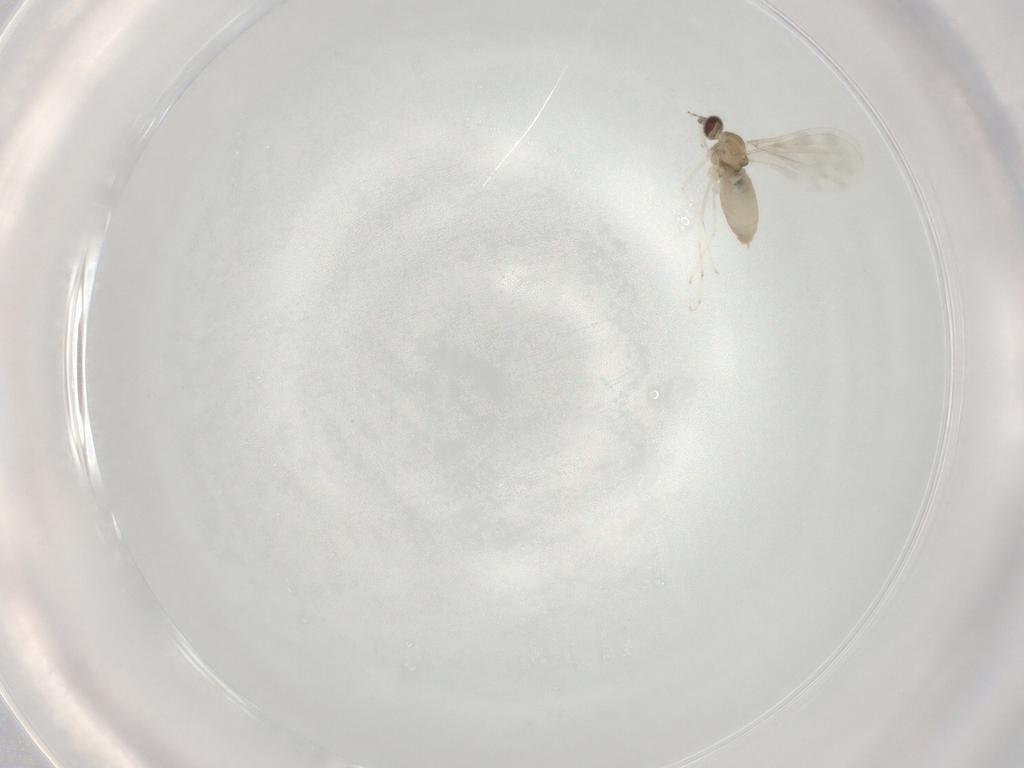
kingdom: Animalia
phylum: Arthropoda
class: Insecta
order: Diptera
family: Cecidomyiidae
